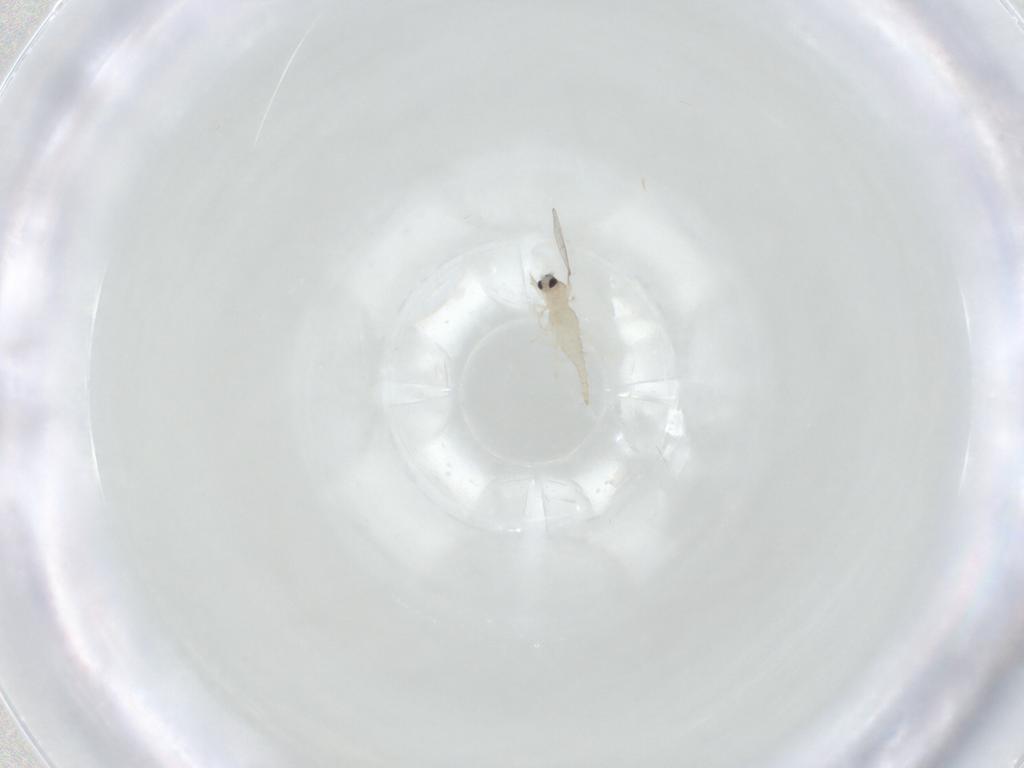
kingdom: Animalia
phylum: Arthropoda
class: Insecta
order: Diptera
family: Cecidomyiidae
